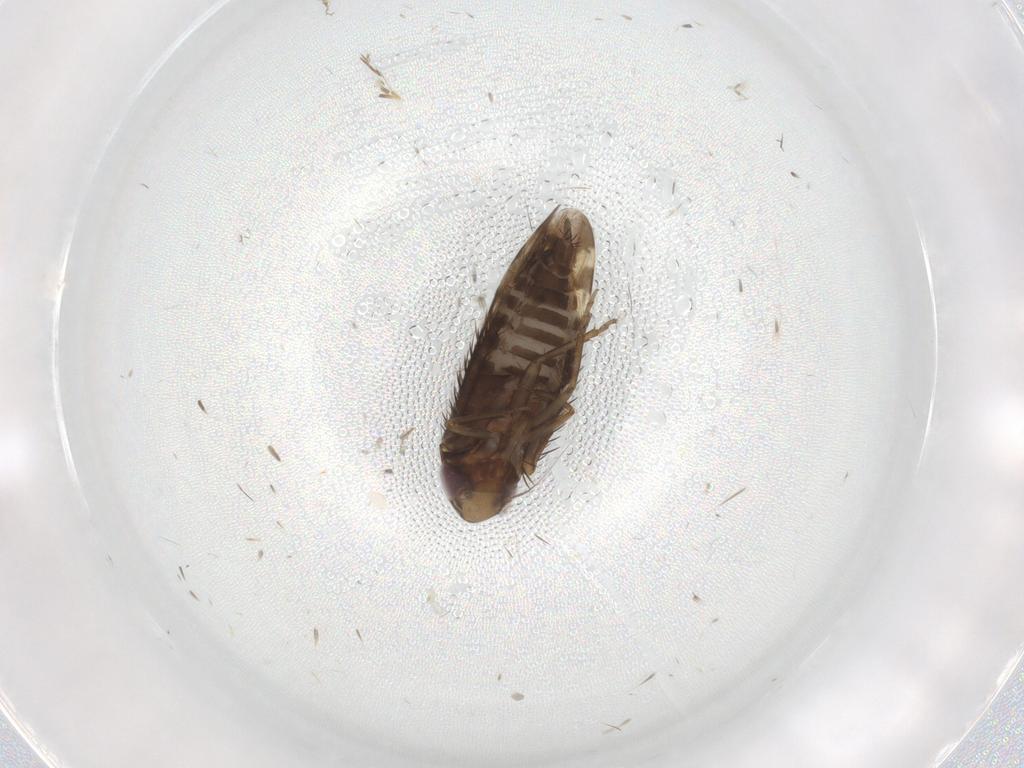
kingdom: Animalia
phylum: Arthropoda
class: Insecta
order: Hemiptera
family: Cicadellidae
